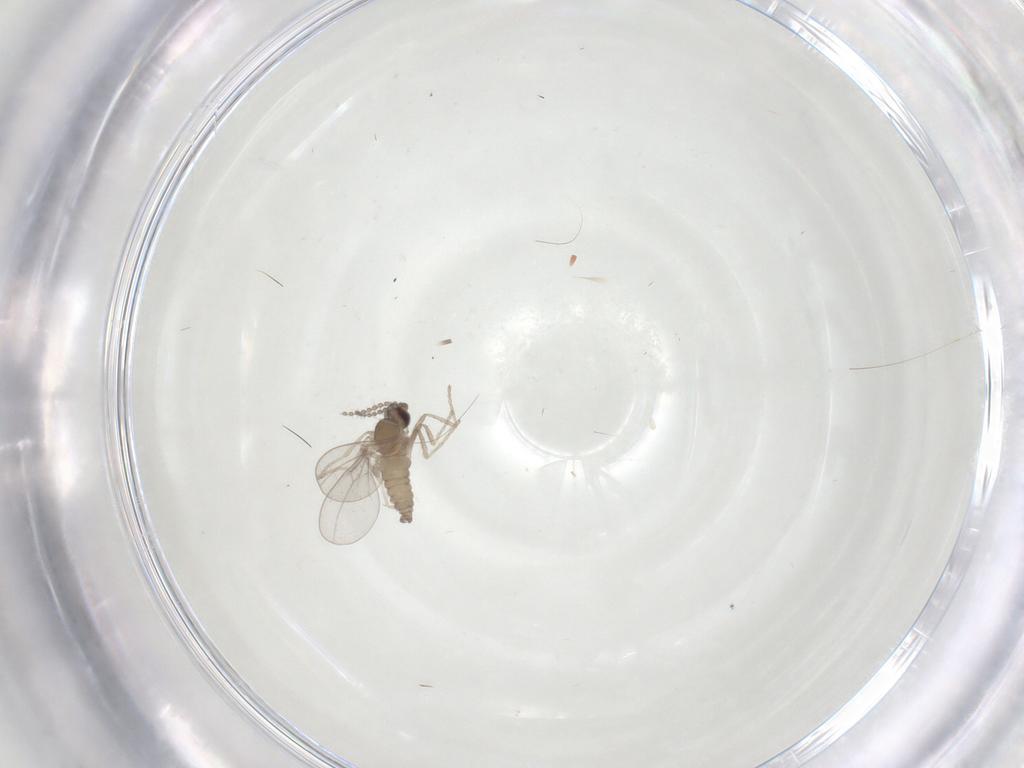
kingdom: Animalia
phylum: Arthropoda
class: Insecta
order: Diptera
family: Cecidomyiidae
